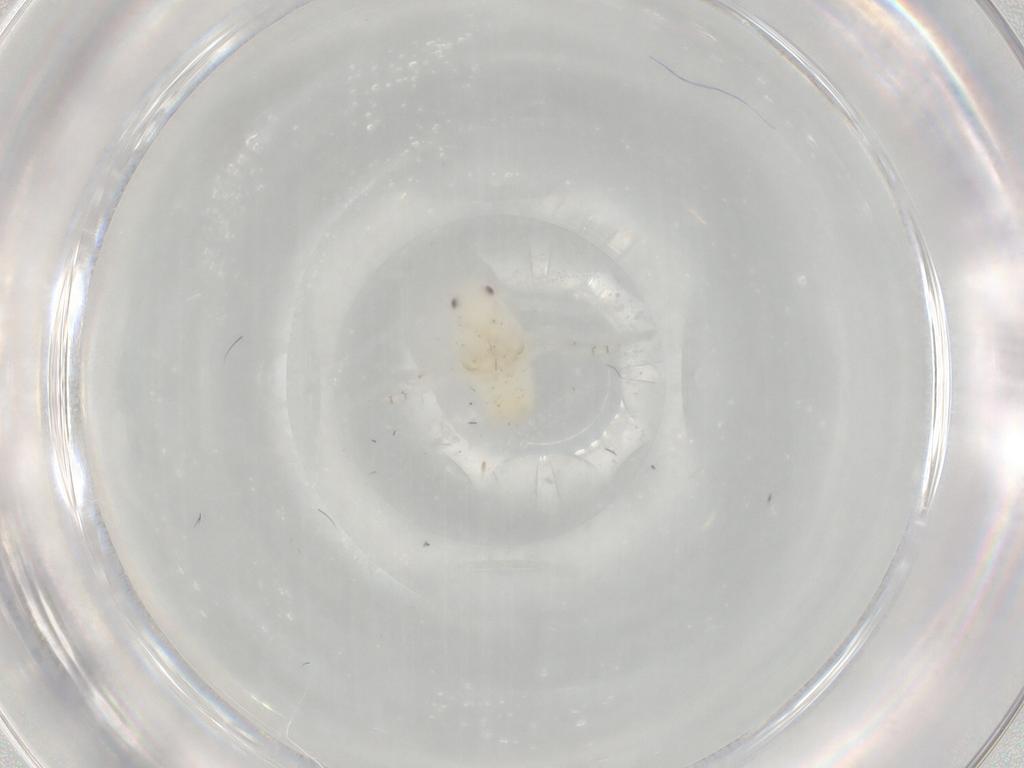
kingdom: Animalia
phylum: Arthropoda
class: Insecta
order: Hemiptera
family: Flatidae
